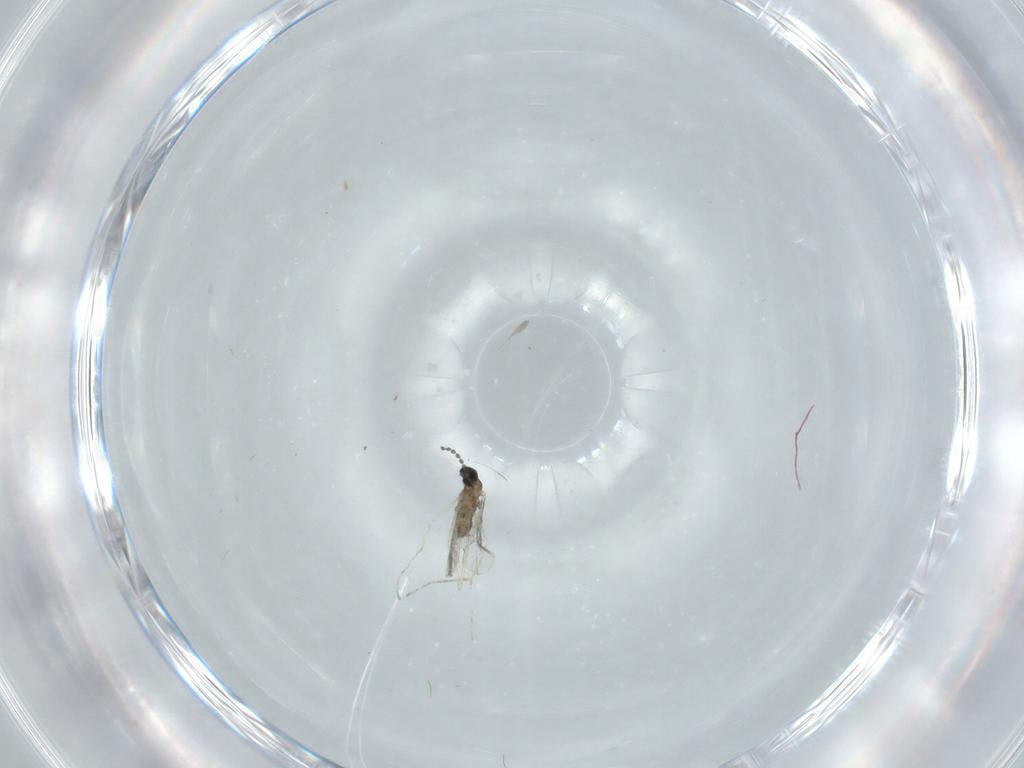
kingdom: Animalia
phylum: Arthropoda
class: Insecta
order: Diptera
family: Cecidomyiidae
